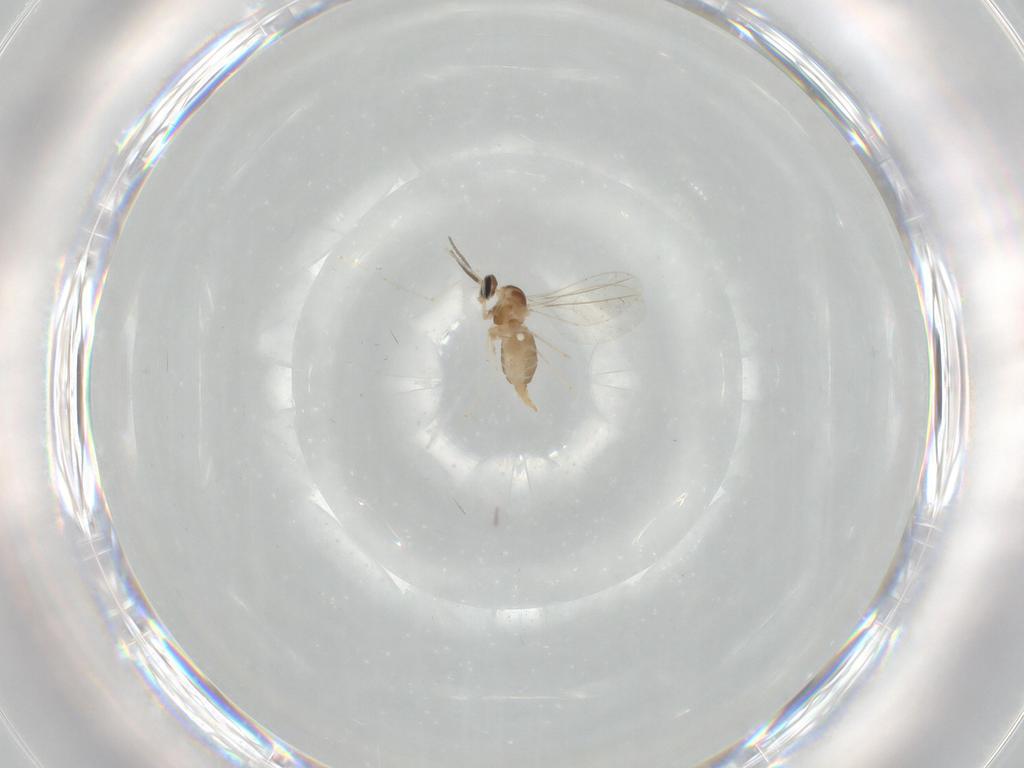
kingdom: Animalia
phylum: Arthropoda
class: Insecta
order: Diptera
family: Cecidomyiidae
